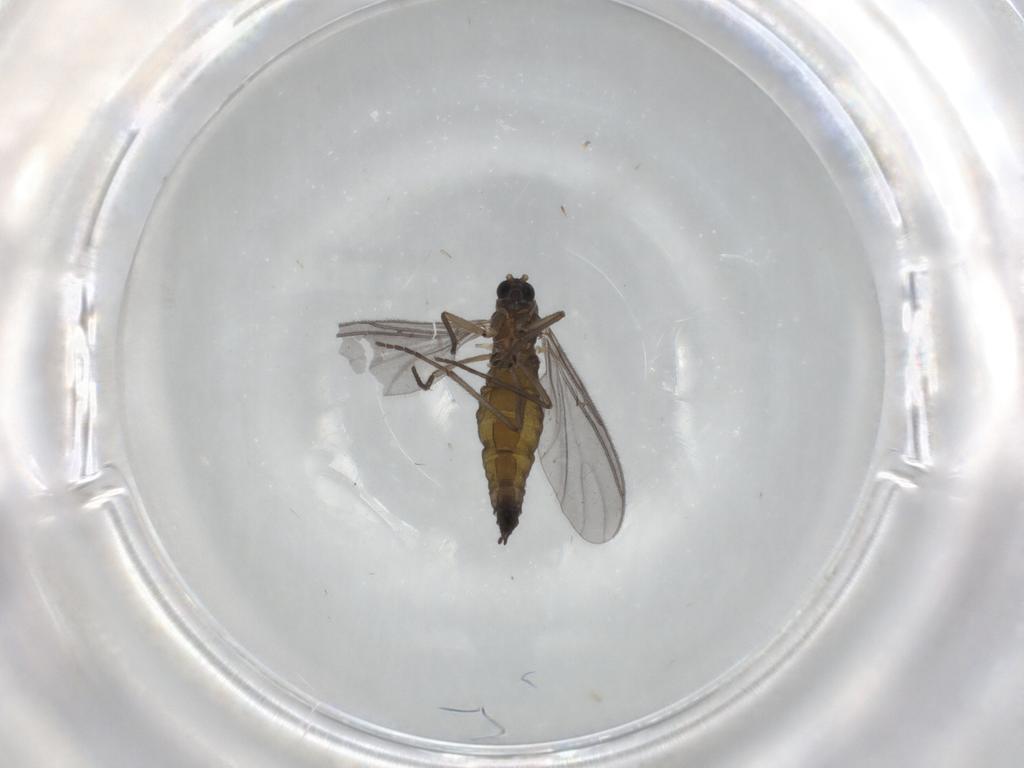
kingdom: Animalia
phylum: Arthropoda
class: Insecta
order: Diptera
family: Sciaridae
